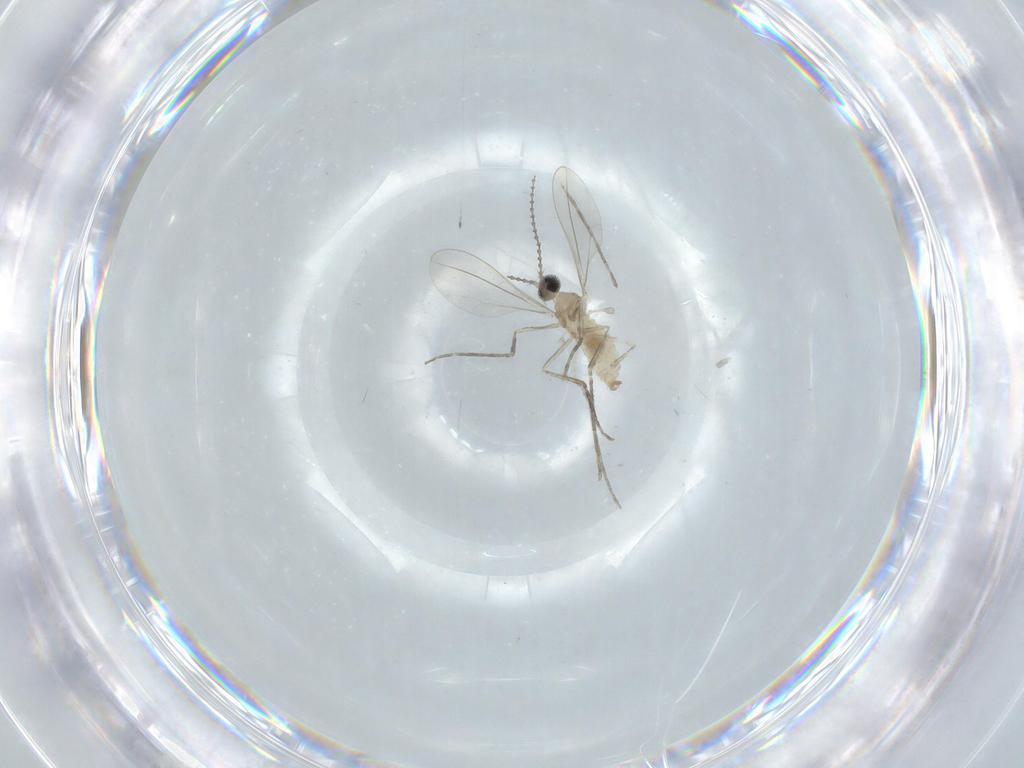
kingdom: Animalia
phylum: Arthropoda
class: Insecta
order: Diptera
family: Cecidomyiidae
